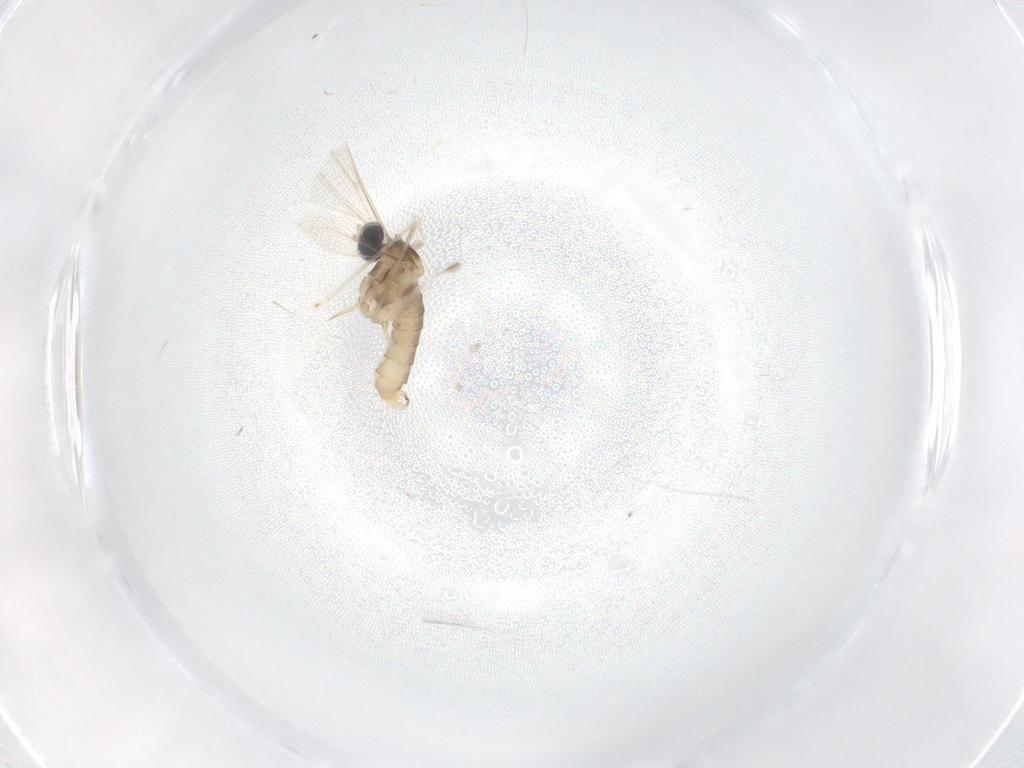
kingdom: Animalia
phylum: Arthropoda
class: Insecta
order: Diptera
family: Cecidomyiidae
